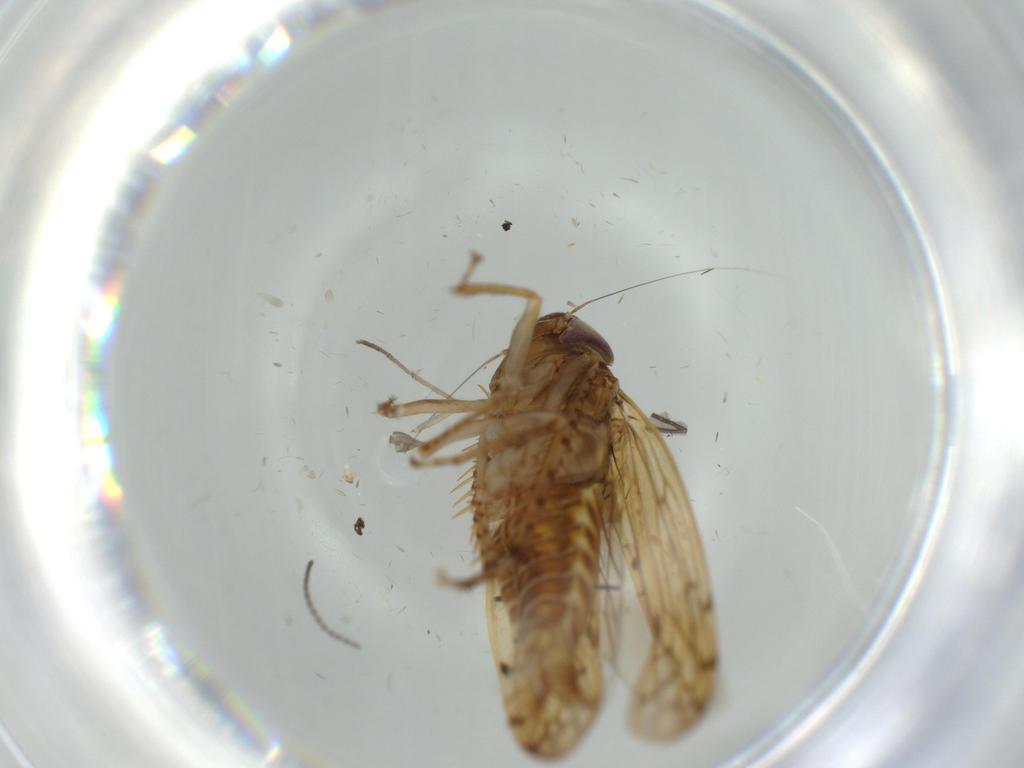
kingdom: Animalia
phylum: Arthropoda
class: Insecta
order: Hemiptera
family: Cicadellidae
